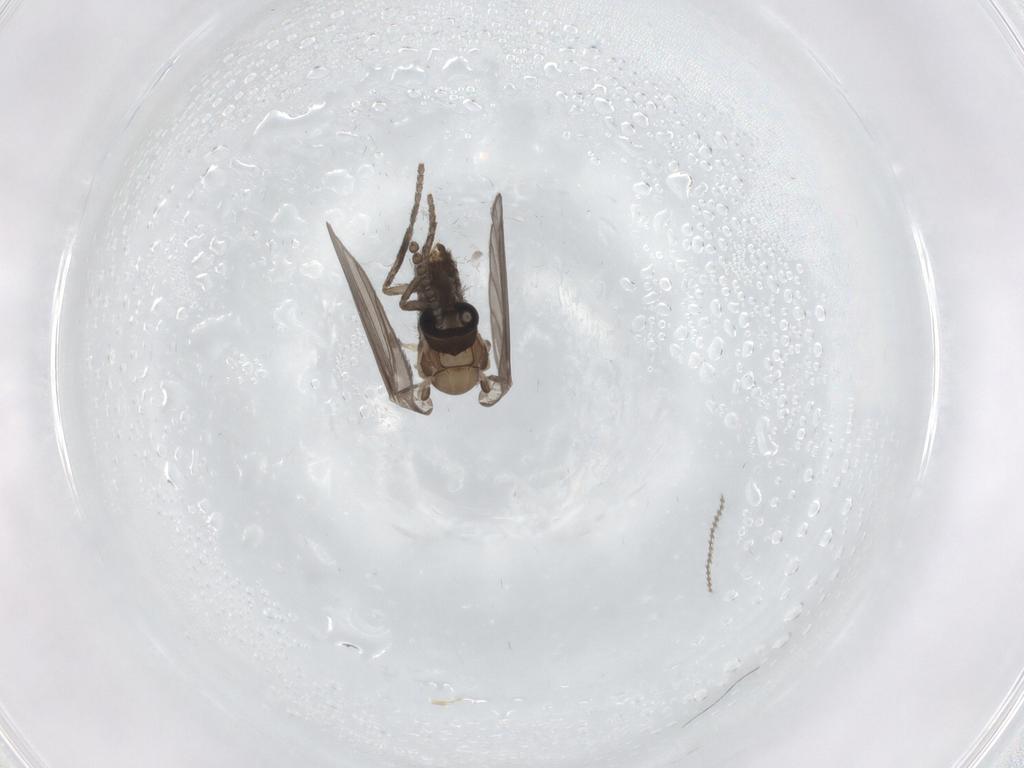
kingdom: Animalia
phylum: Arthropoda
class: Insecta
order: Diptera
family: Psychodidae
